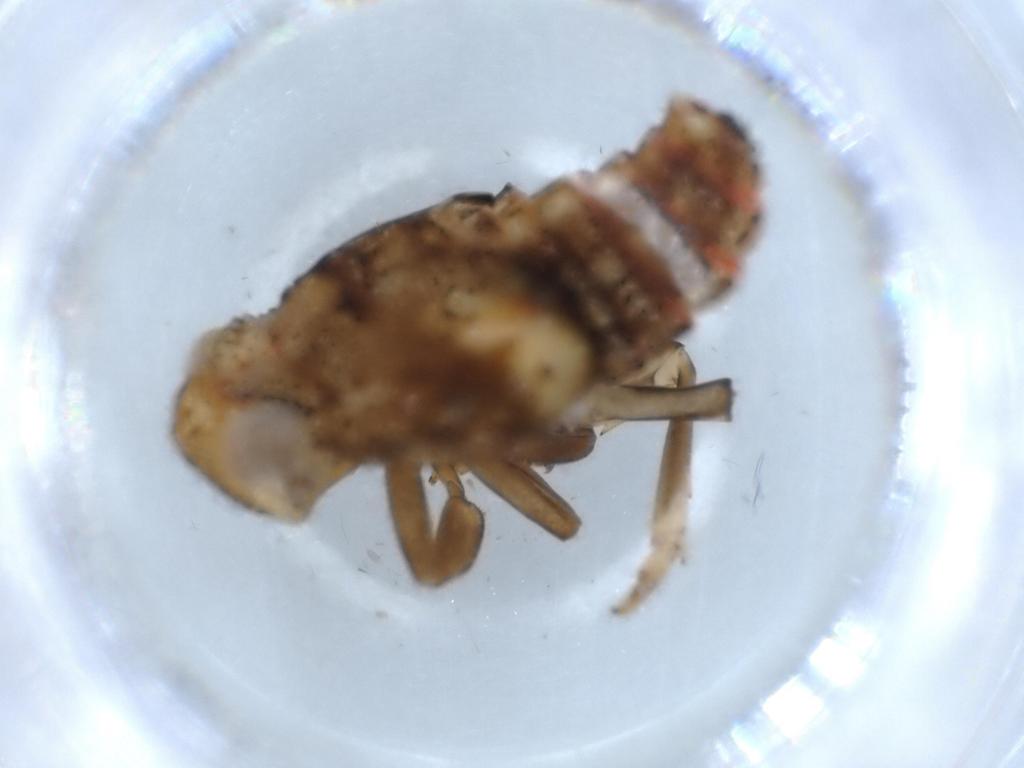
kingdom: Animalia
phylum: Arthropoda
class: Insecta
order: Hemiptera
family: Issidae
